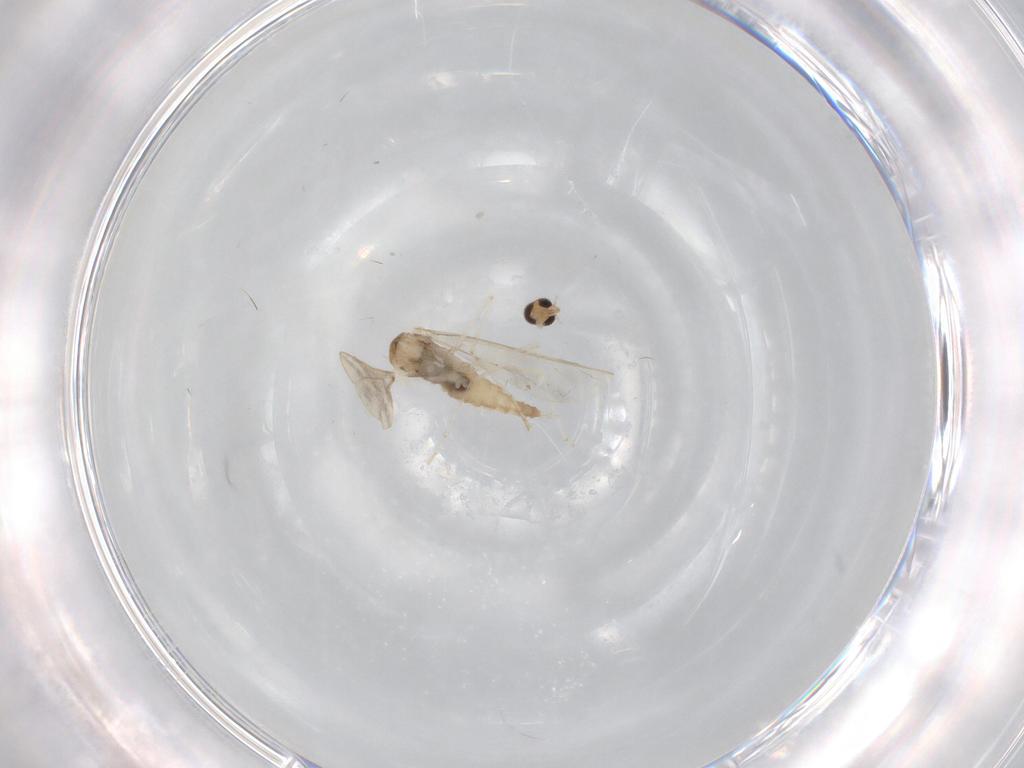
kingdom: Animalia
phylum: Arthropoda
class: Insecta
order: Diptera
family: Cecidomyiidae
